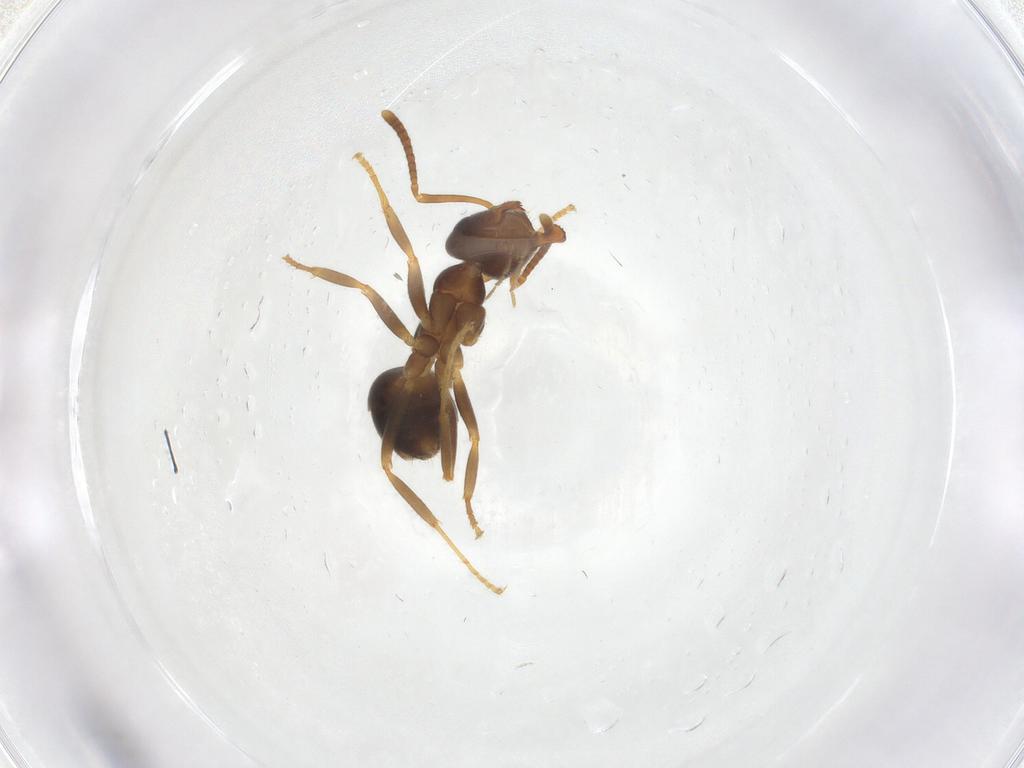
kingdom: Animalia
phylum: Arthropoda
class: Insecta
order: Hymenoptera
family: Formicidae
